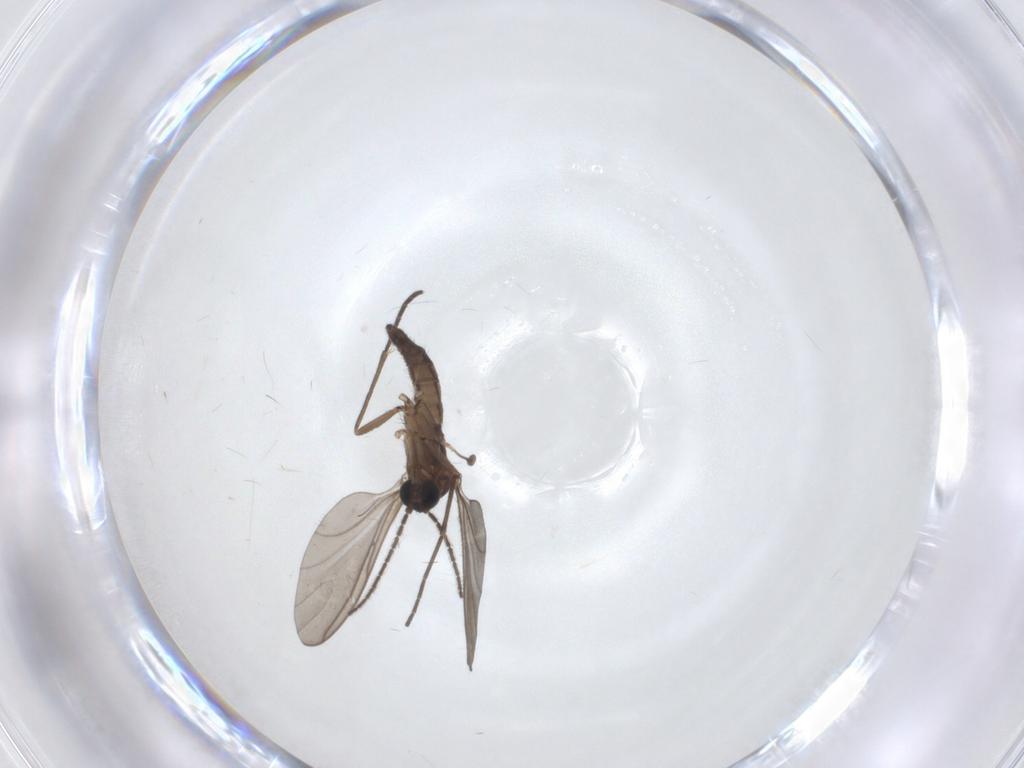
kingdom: Animalia
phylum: Arthropoda
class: Insecta
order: Diptera
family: Sciaridae
